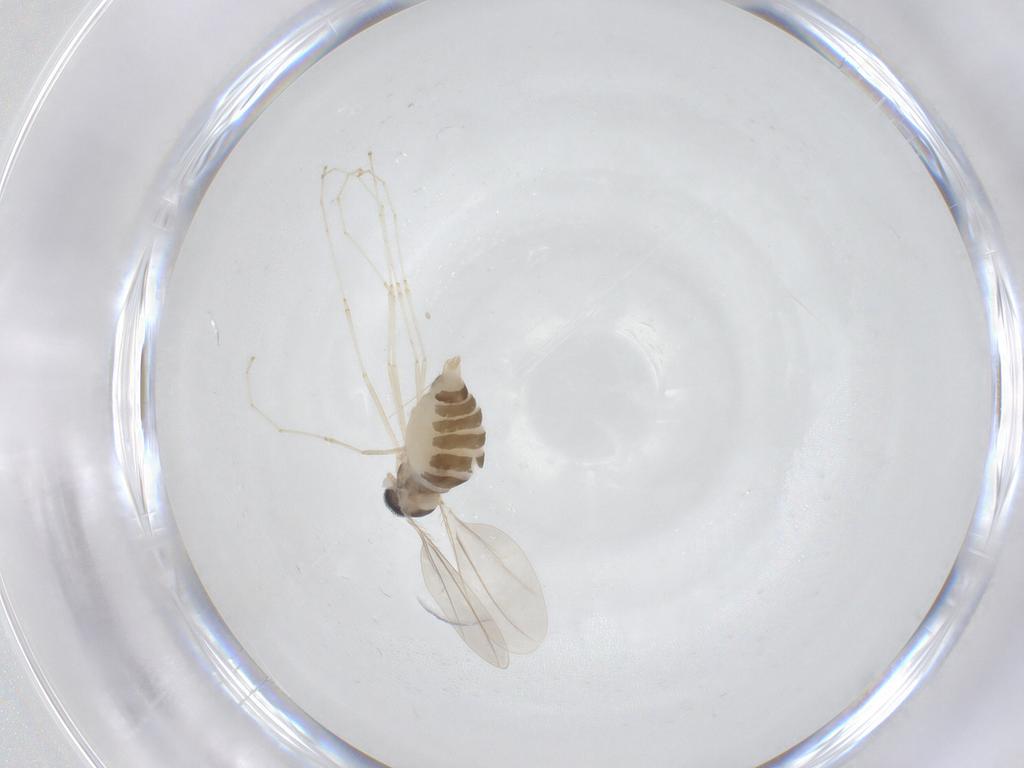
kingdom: Animalia
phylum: Arthropoda
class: Insecta
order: Diptera
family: Cecidomyiidae
